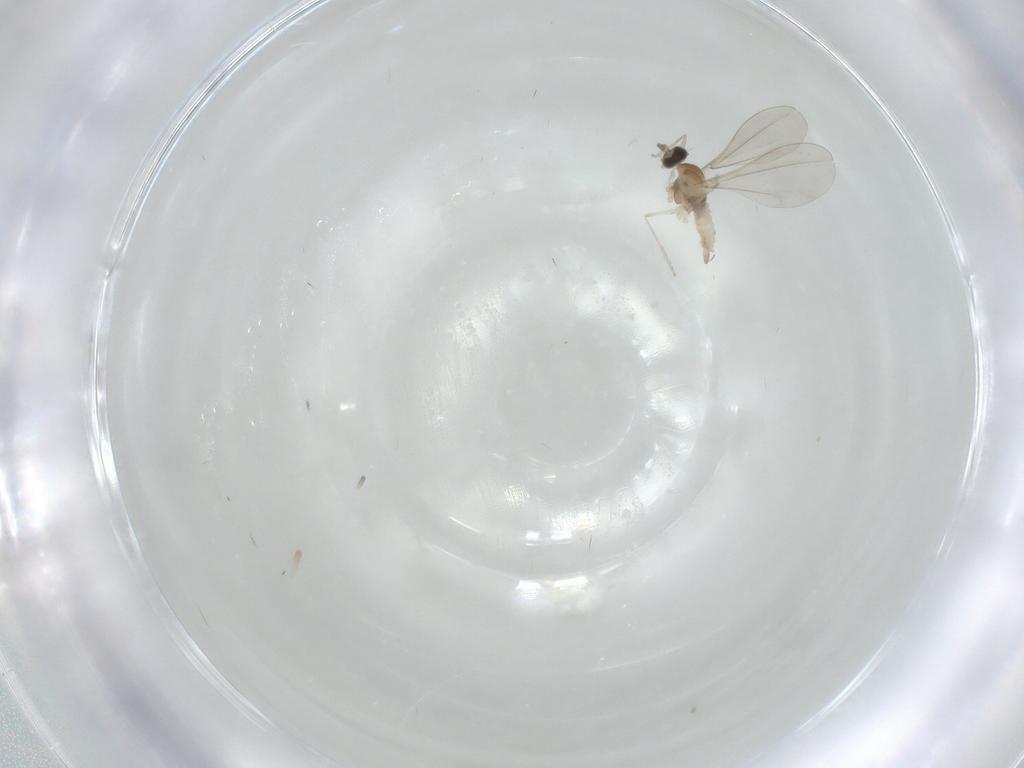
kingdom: Animalia
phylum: Arthropoda
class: Insecta
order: Diptera
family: Cecidomyiidae
